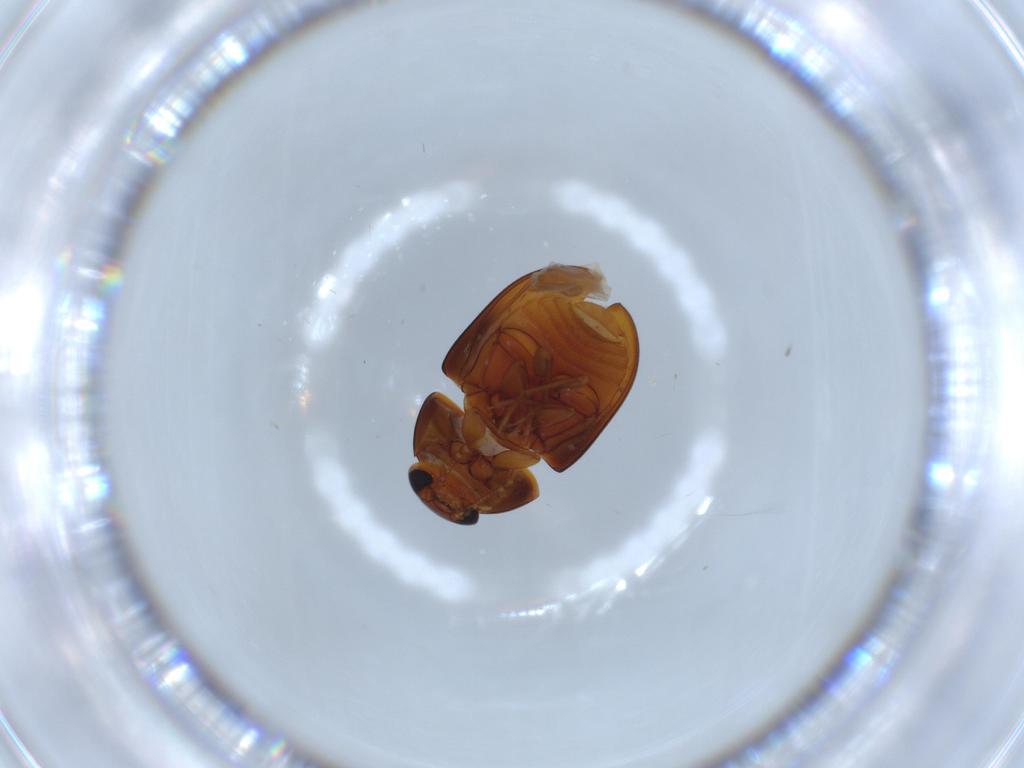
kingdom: Animalia
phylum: Arthropoda
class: Insecta
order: Coleoptera
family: Phalacridae
